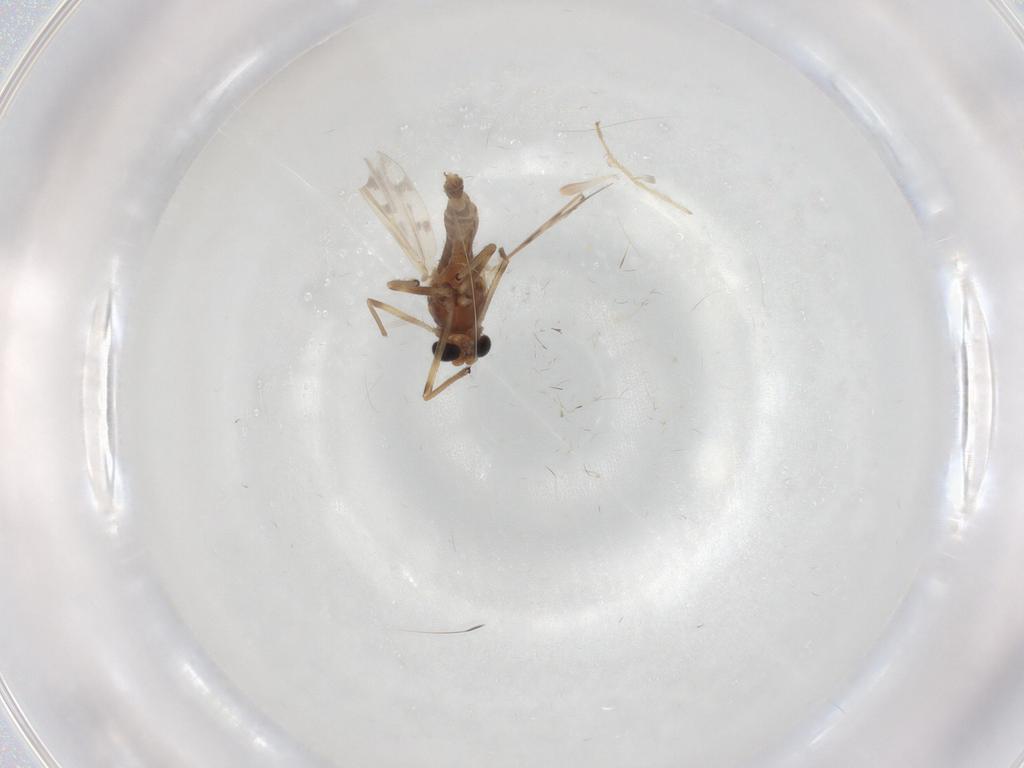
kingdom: Animalia
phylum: Arthropoda
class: Insecta
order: Diptera
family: Chironomidae
